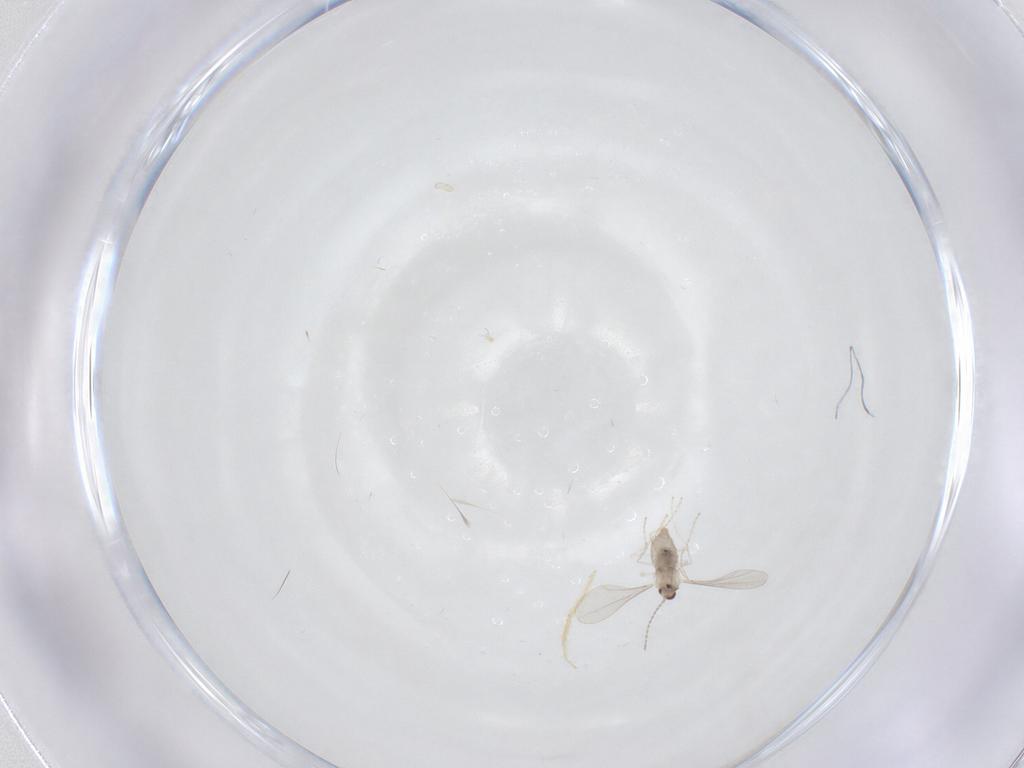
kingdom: Animalia
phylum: Arthropoda
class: Insecta
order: Diptera
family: Cecidomyiidae
